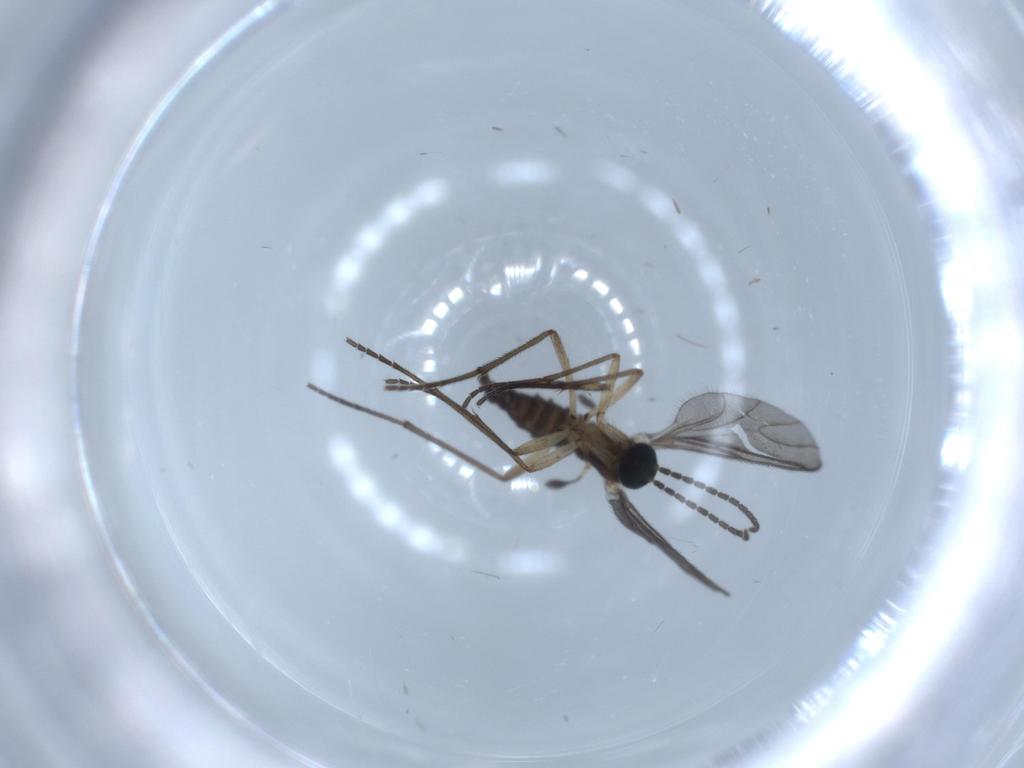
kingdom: Animalia
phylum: Arthropoda
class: Insecta
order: Diptera
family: Sciaridae
